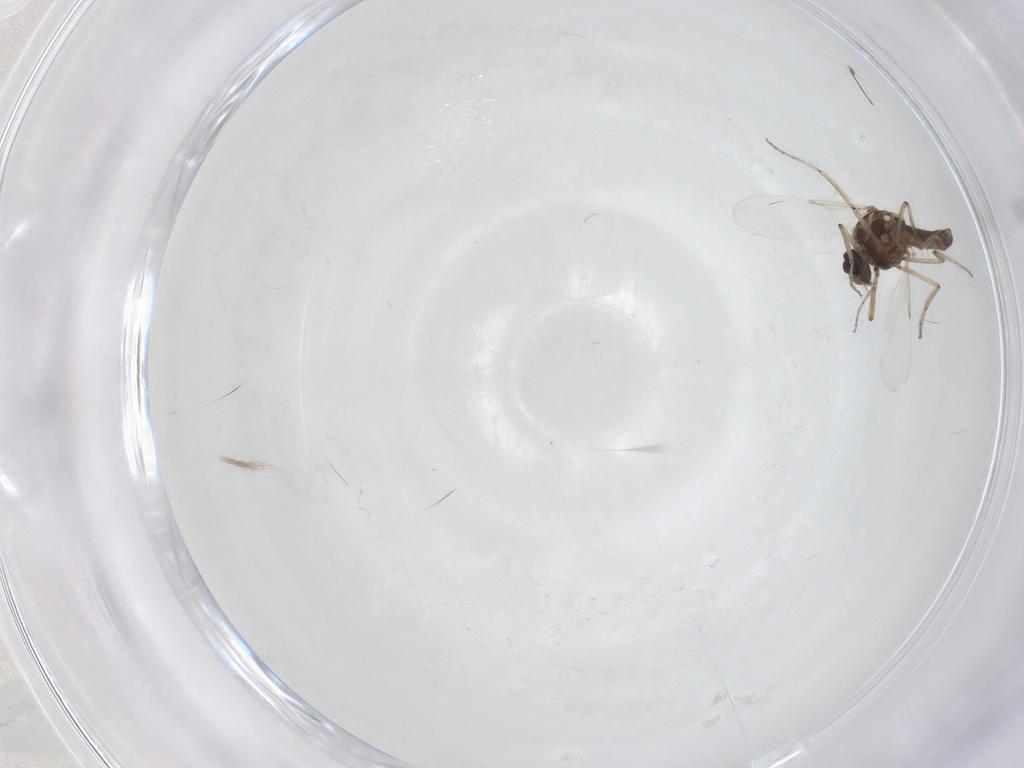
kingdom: Animalia
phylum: Arthropoda
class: Insecta
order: Diptera
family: Ceratopogonidae
